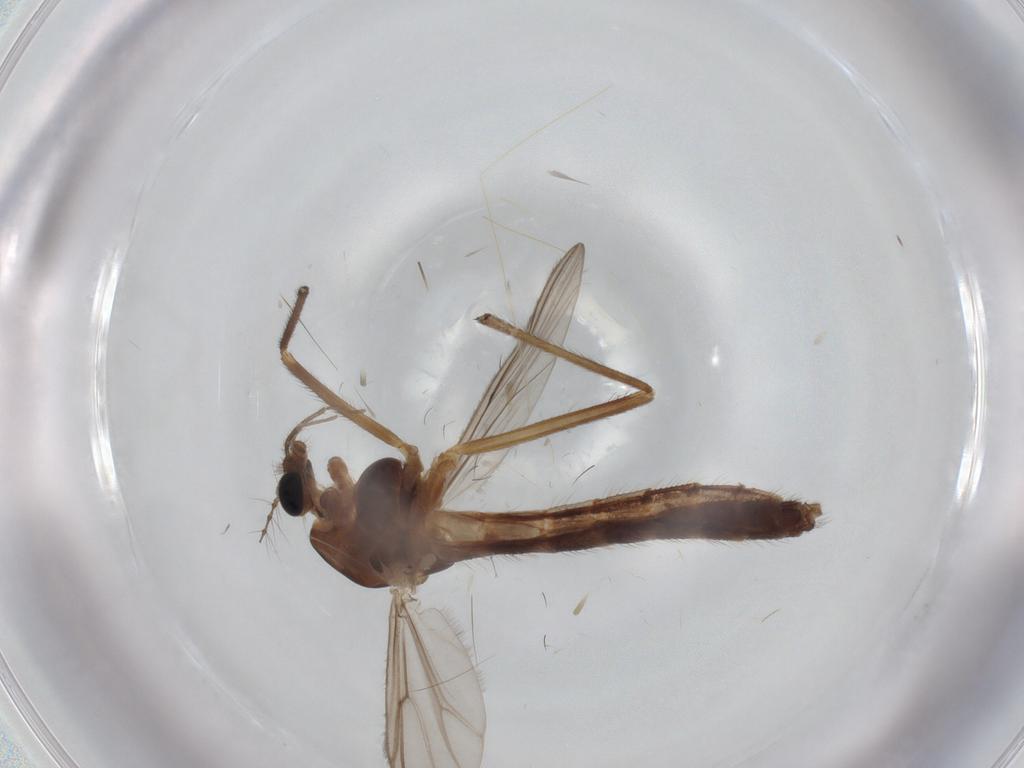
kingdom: Animalia
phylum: Arthropoda
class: Insecta
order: Diptera
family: Chironomidae
